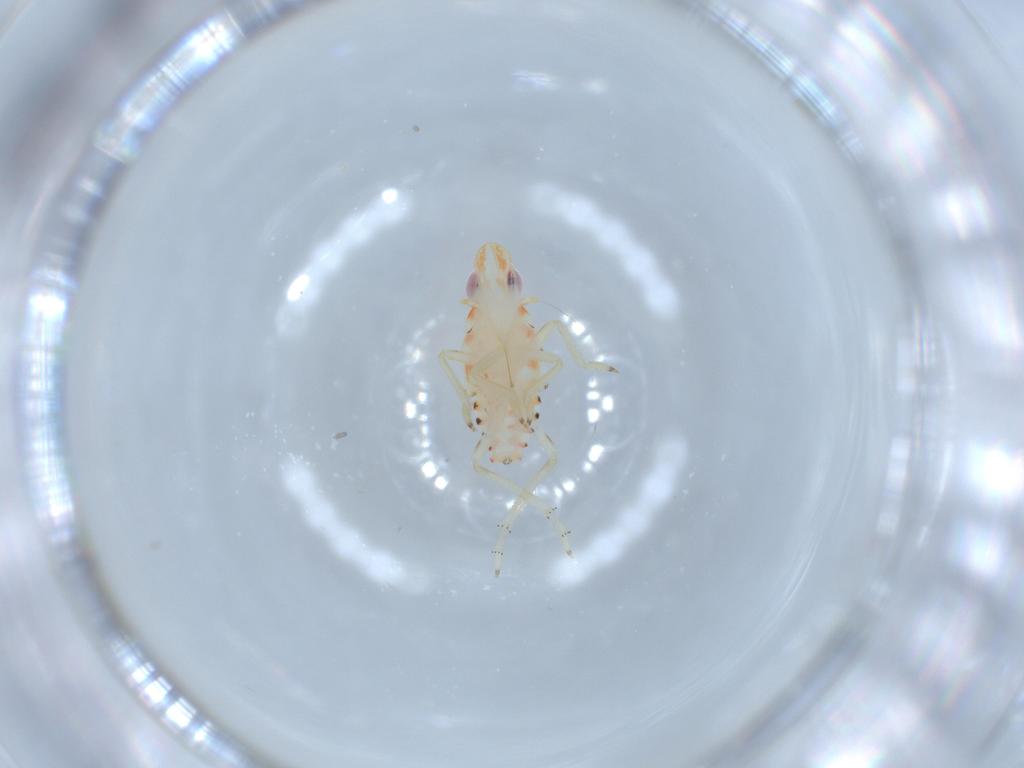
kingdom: Animalia
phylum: Arthropoda
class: Insecta
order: Hemiptera
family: Tropiduchidae
